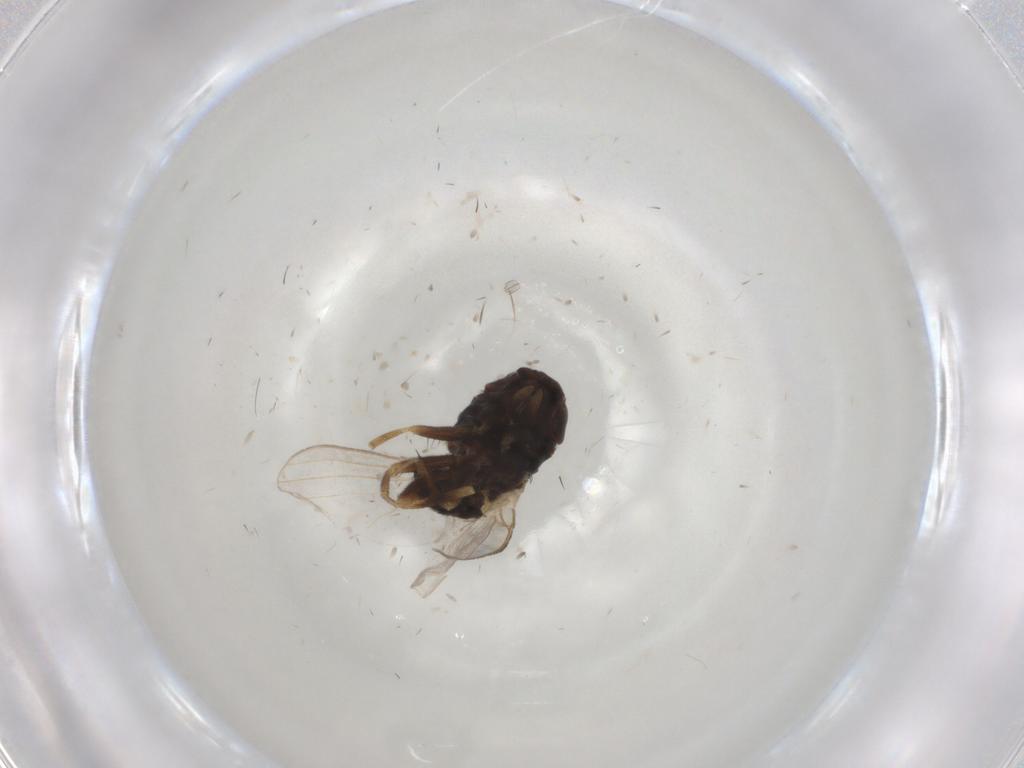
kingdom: Animalia
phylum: Arthropoda
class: Insecta
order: Diptera
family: Milichiidae
